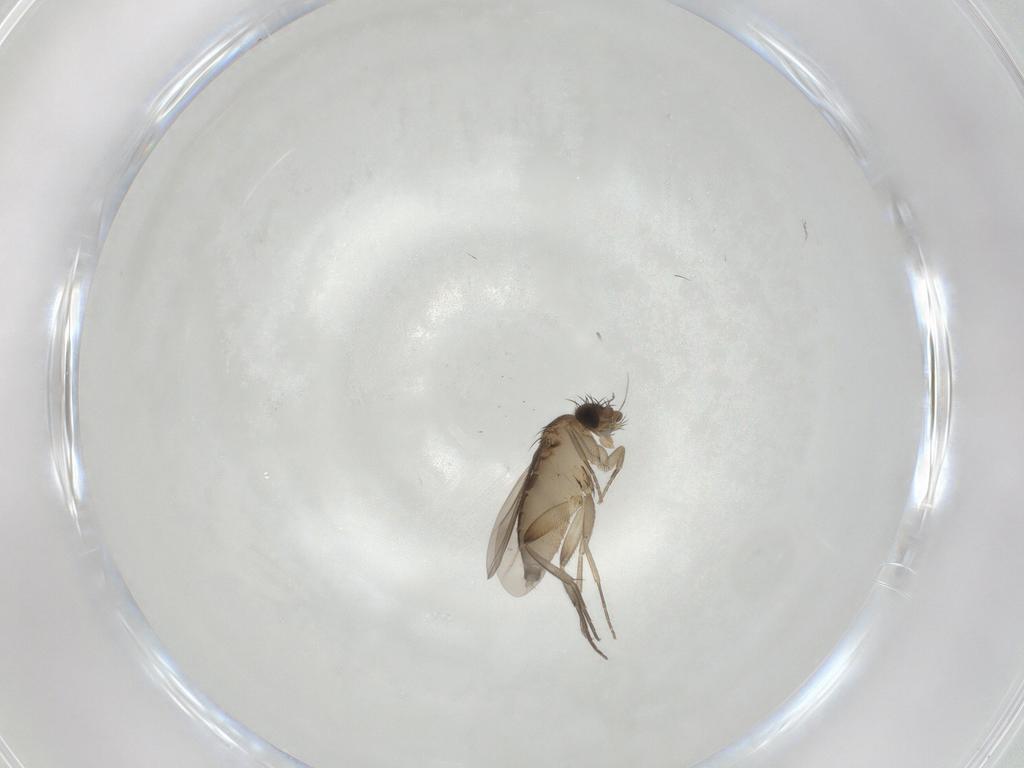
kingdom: Animalia
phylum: Arthropoda
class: Insecta
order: Diptera
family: Phoridae
